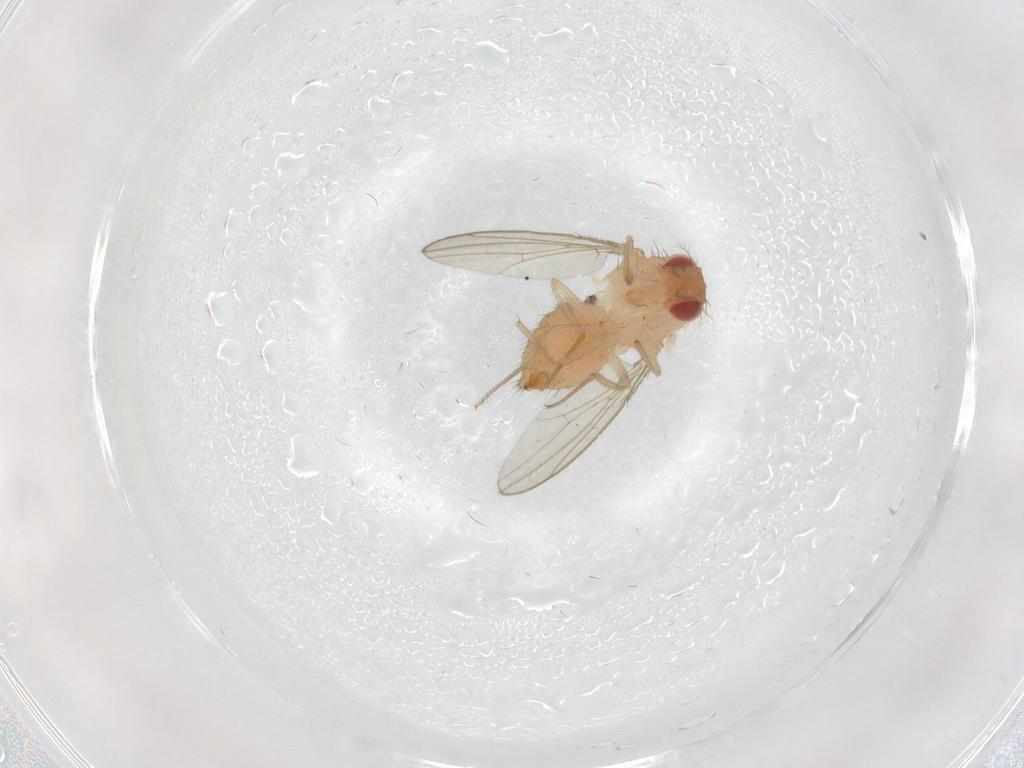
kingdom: Animalia
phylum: Arthropoda
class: Insecta
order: Diptera
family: Drosophilidae
